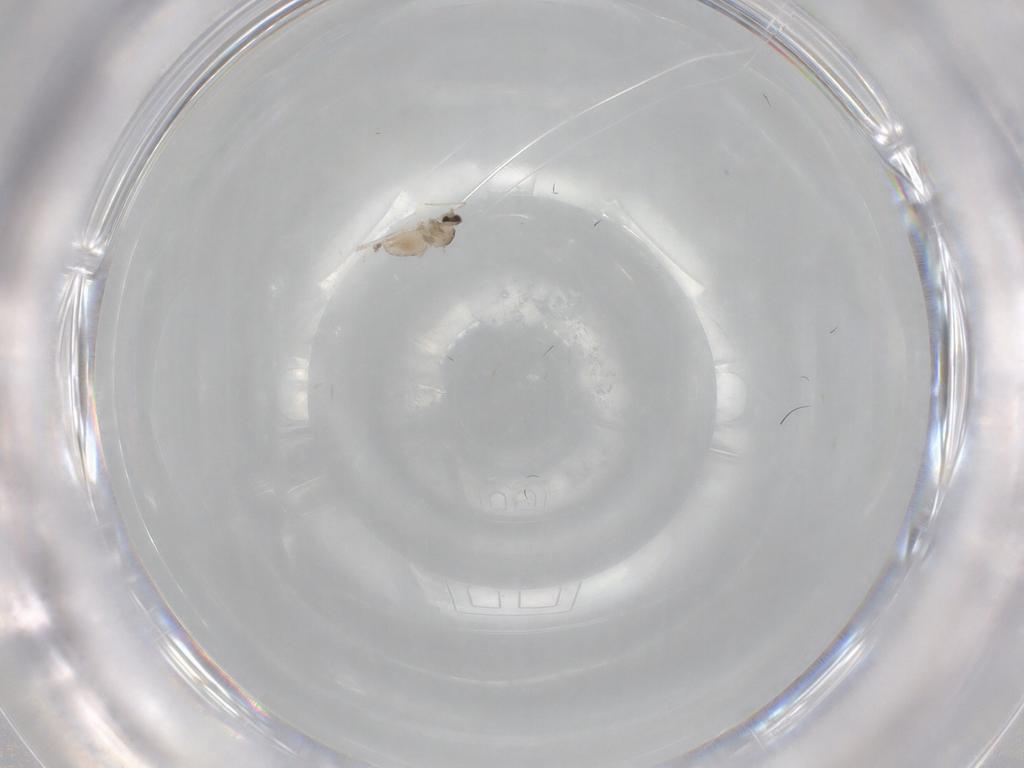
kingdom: Animalia
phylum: Arthropoda
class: Insecta
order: Diptera
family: Cecidomyiidae
